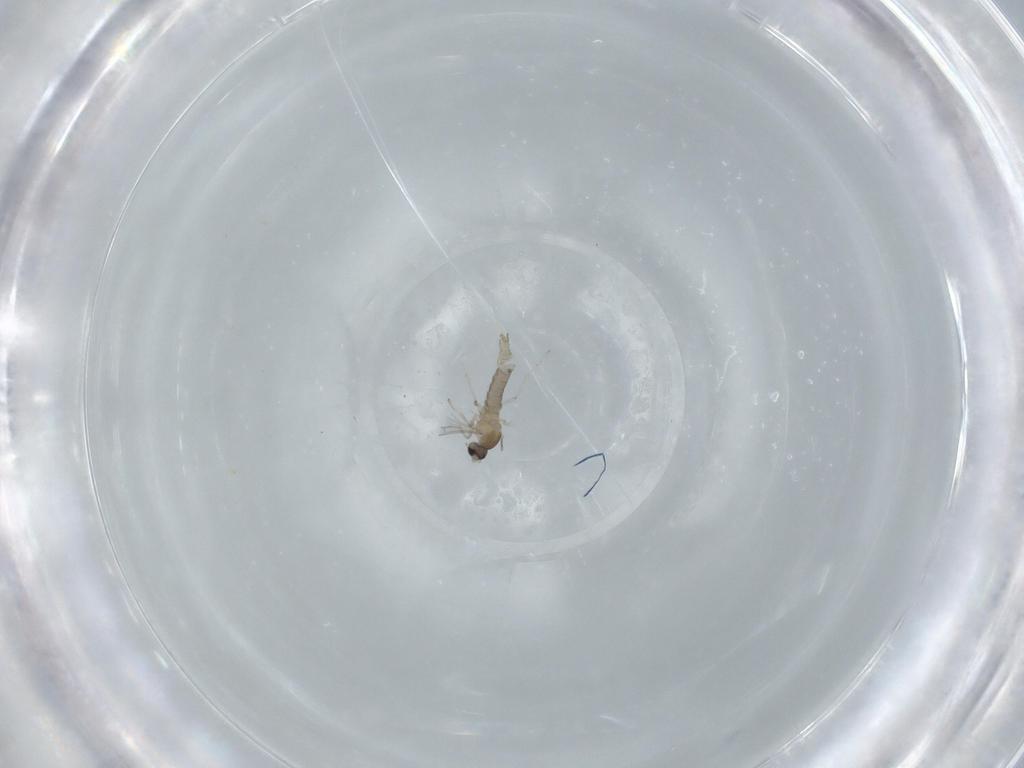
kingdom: Animalia
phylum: Arthropoda
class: Insecta
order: Diptera
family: Cecidomyiidae
